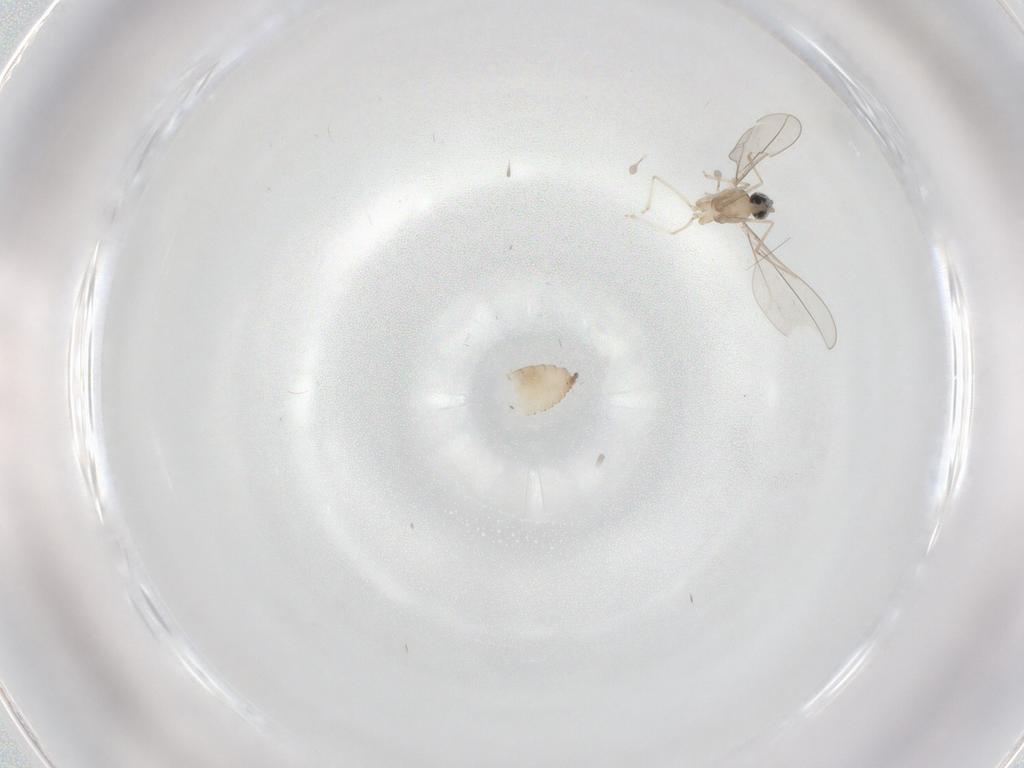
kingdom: Animalia
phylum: Arthropoda
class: Insecta
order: Diptera
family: Cecidomyiidae
